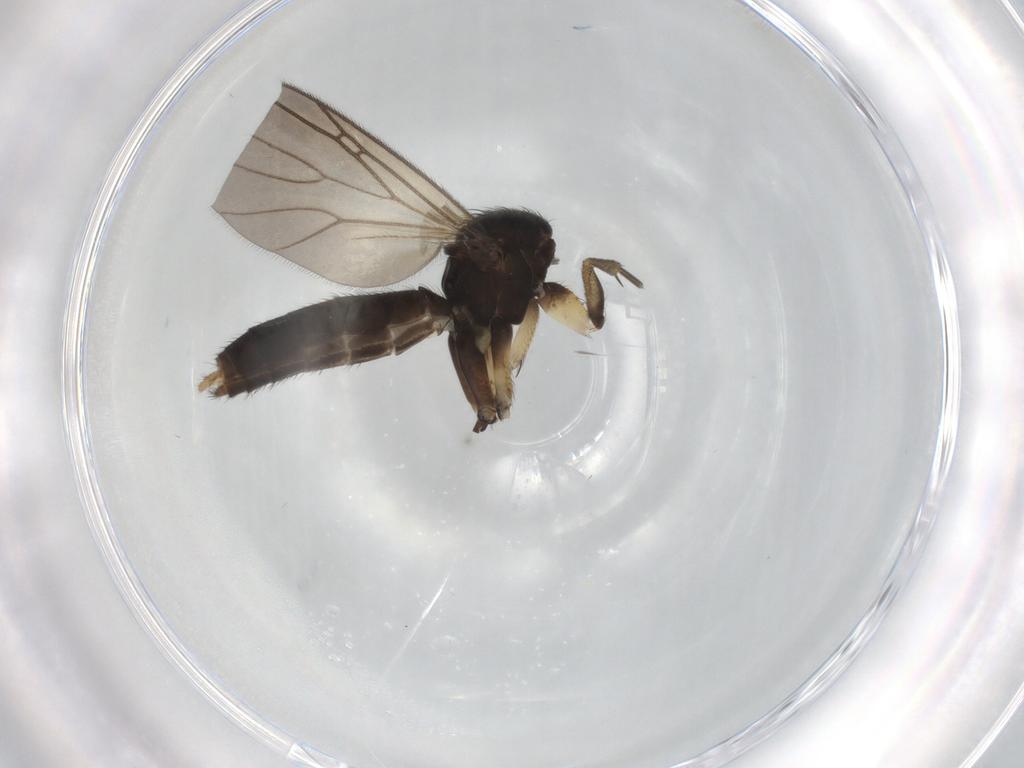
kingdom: Animalia
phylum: Arthropoda
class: Insecta
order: Diptera
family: Mycetophilidae
